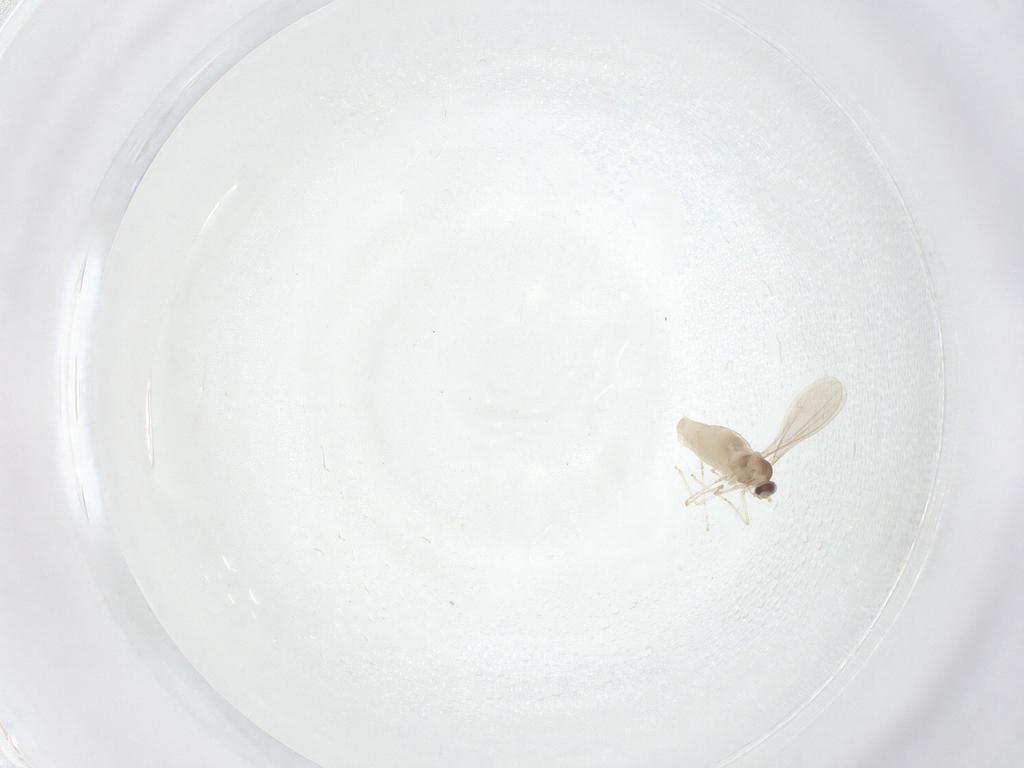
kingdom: Animalia
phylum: Arthropoda
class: Insecta
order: Diptera
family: Cecidomyiidae
